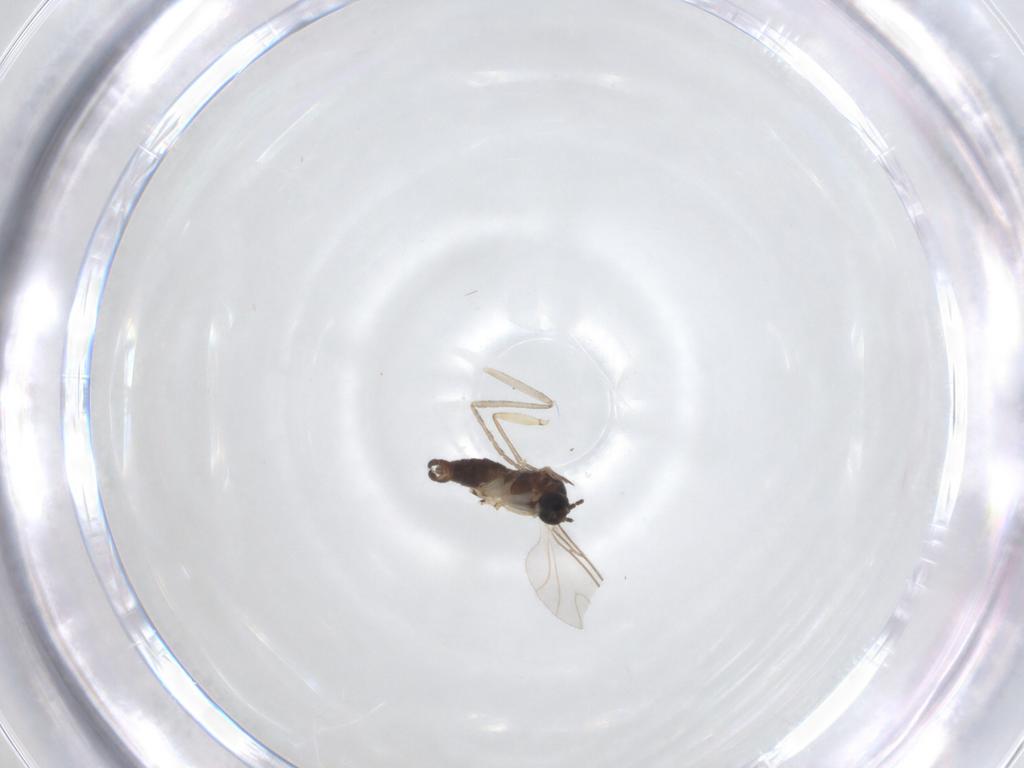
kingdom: Animalia
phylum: Arthropoda
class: Insecta
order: Diptera
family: Cecidomyiidae
